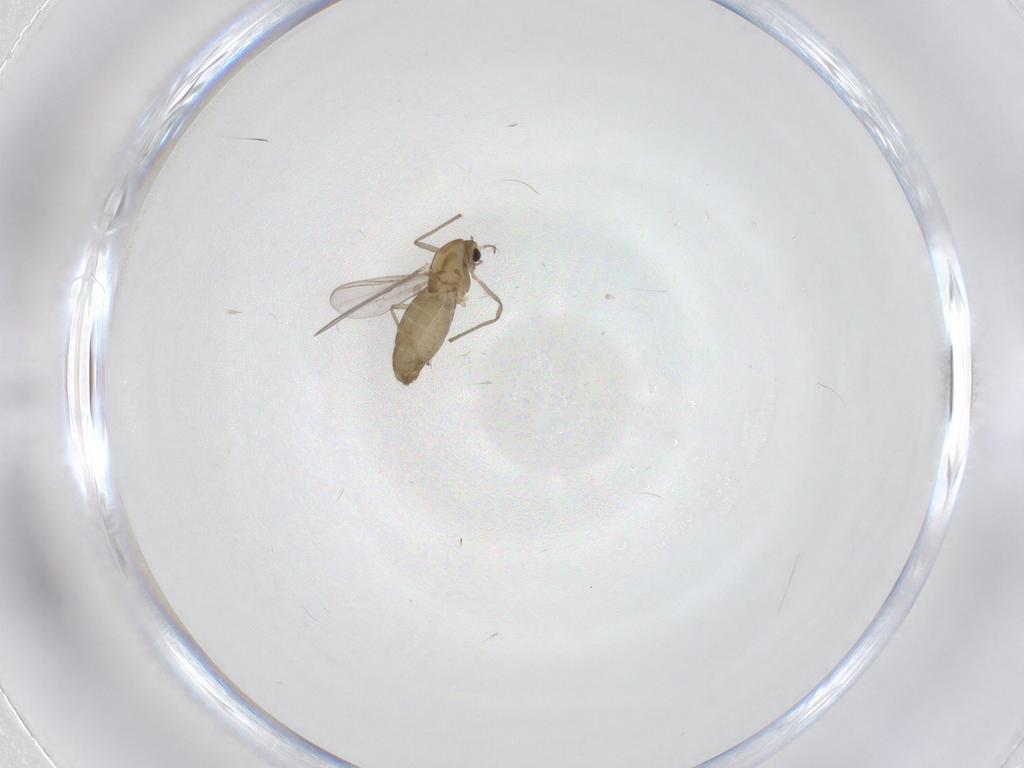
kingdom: Animalia
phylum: Arthropoda
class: Insecta
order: Diptera
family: Chironomidae
